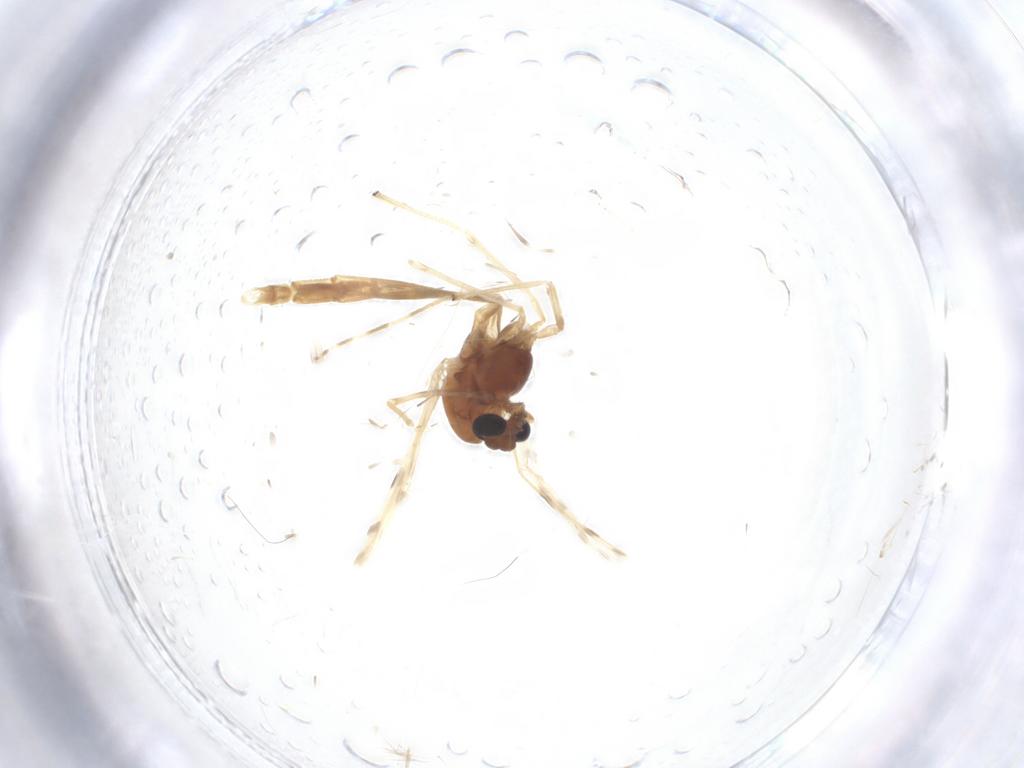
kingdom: Animalia
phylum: Arthropoda
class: Insecta
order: Diptera
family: Chironomidae
